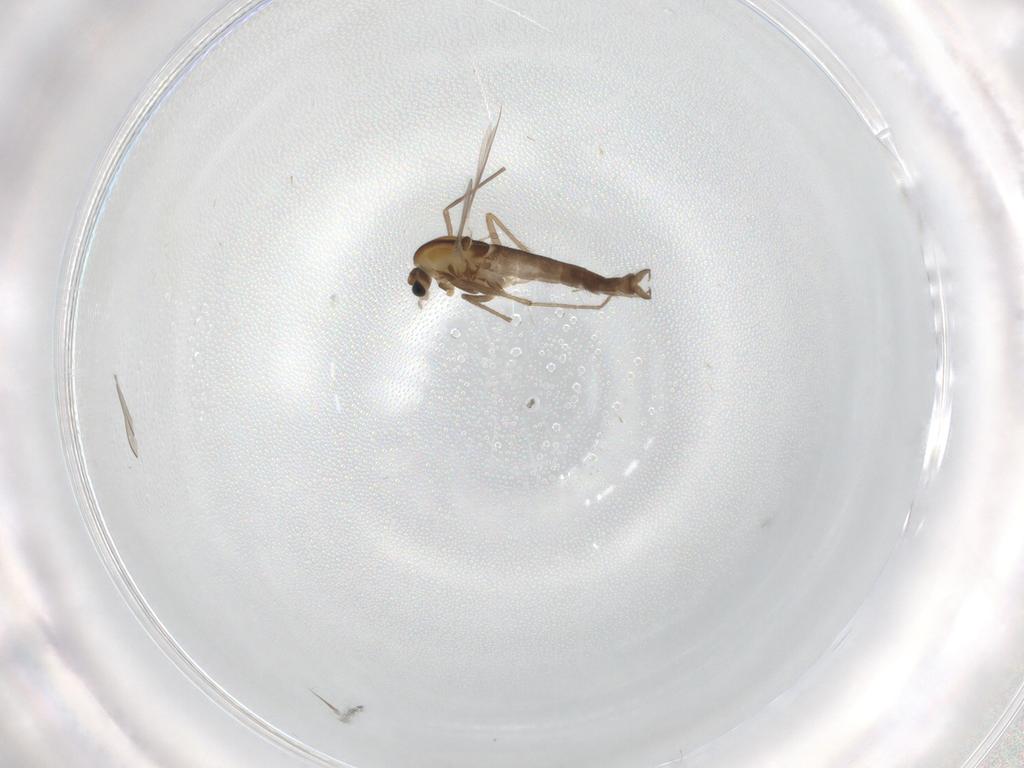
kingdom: Animalia
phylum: Arthropoda
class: Insecta
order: Diptera
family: Chironomidae
